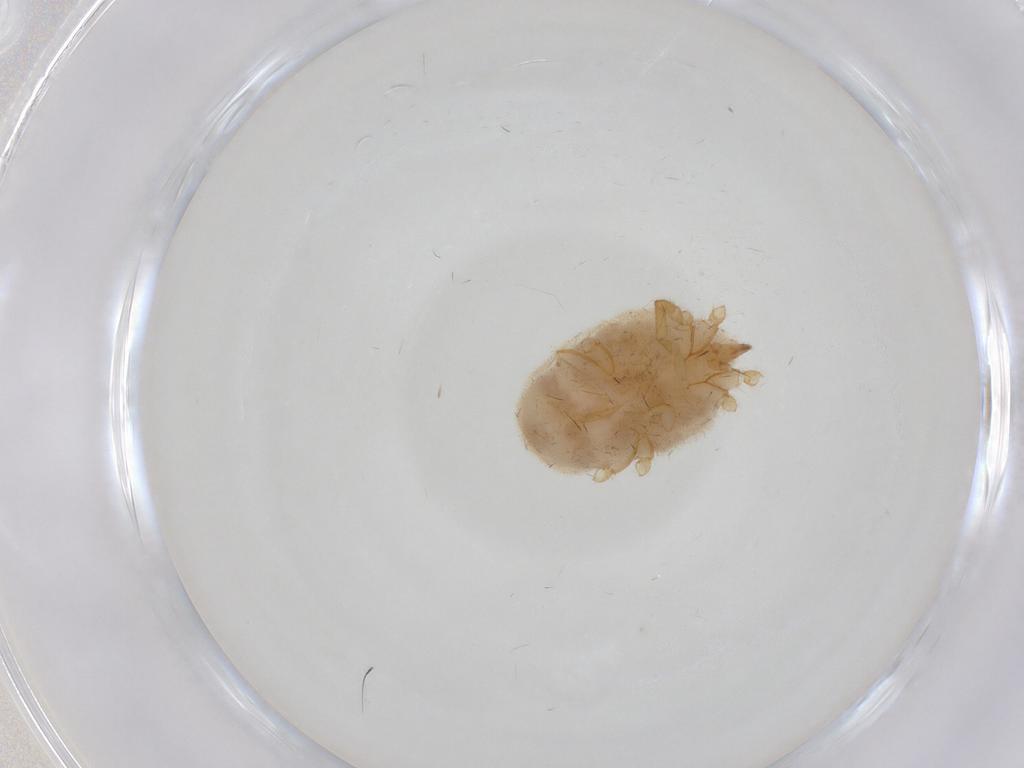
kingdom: Animalia
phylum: Arthropoda
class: Arachnida
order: Trombidiformes
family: Erythraeidae
